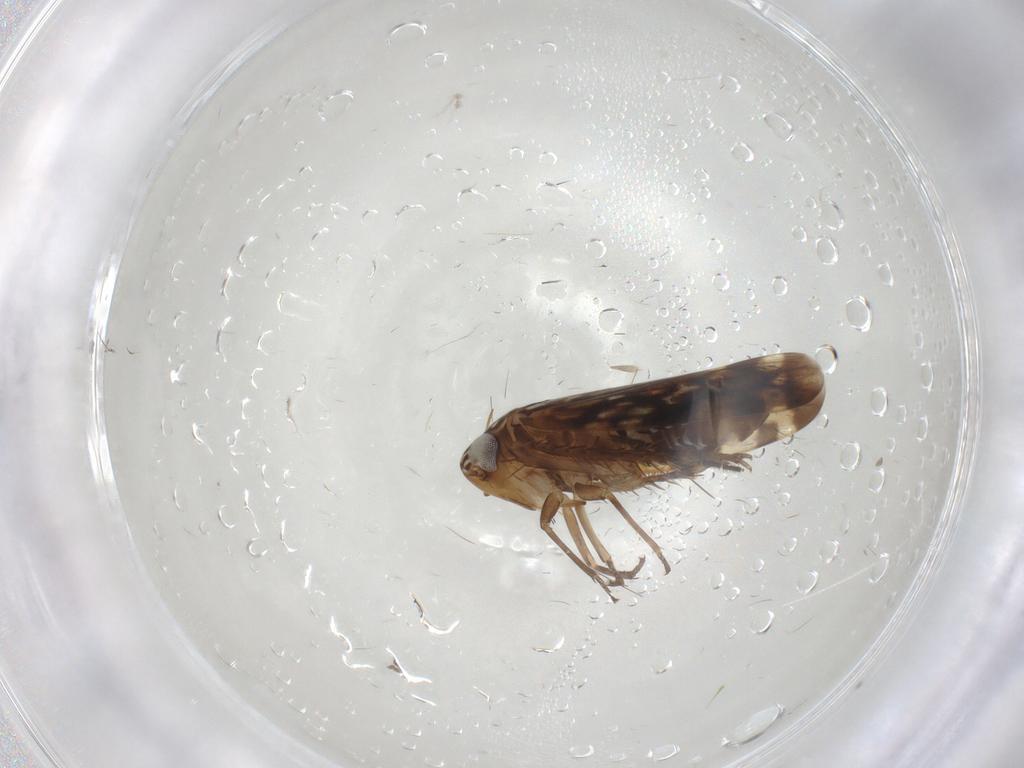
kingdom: Animalia
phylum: Arthropoda
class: Insecta
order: Hemiptera
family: Cicadellidae
